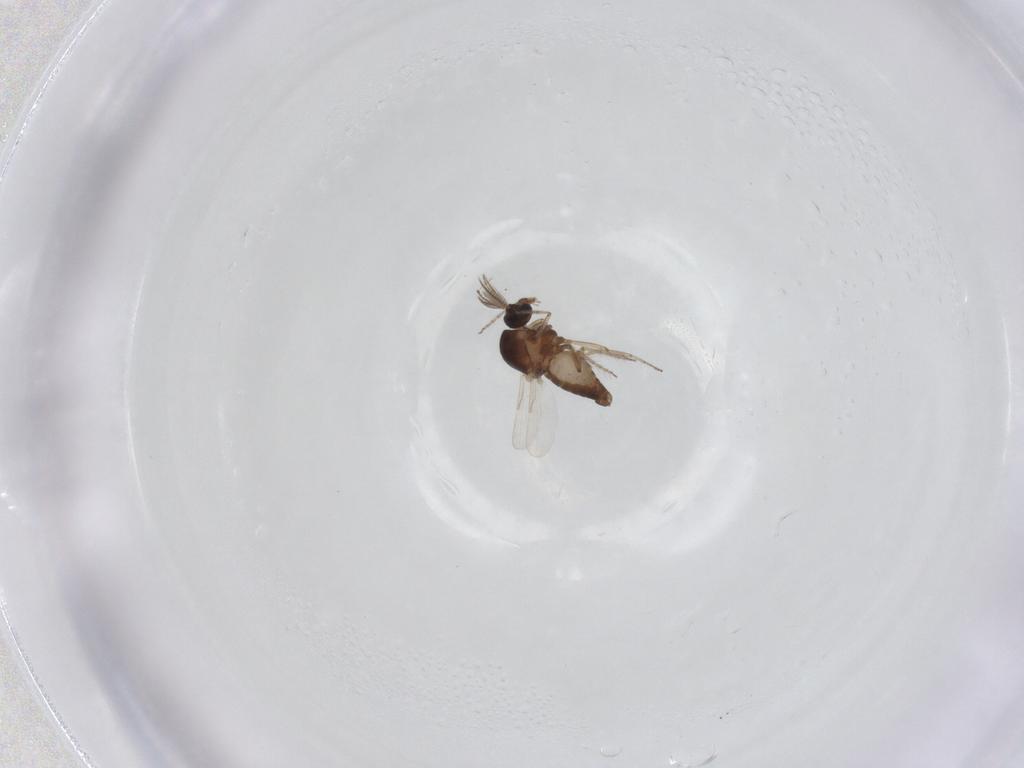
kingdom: Animalia
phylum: Arthropoda
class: Insecta
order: Diptera
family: Ceratopogonidae
